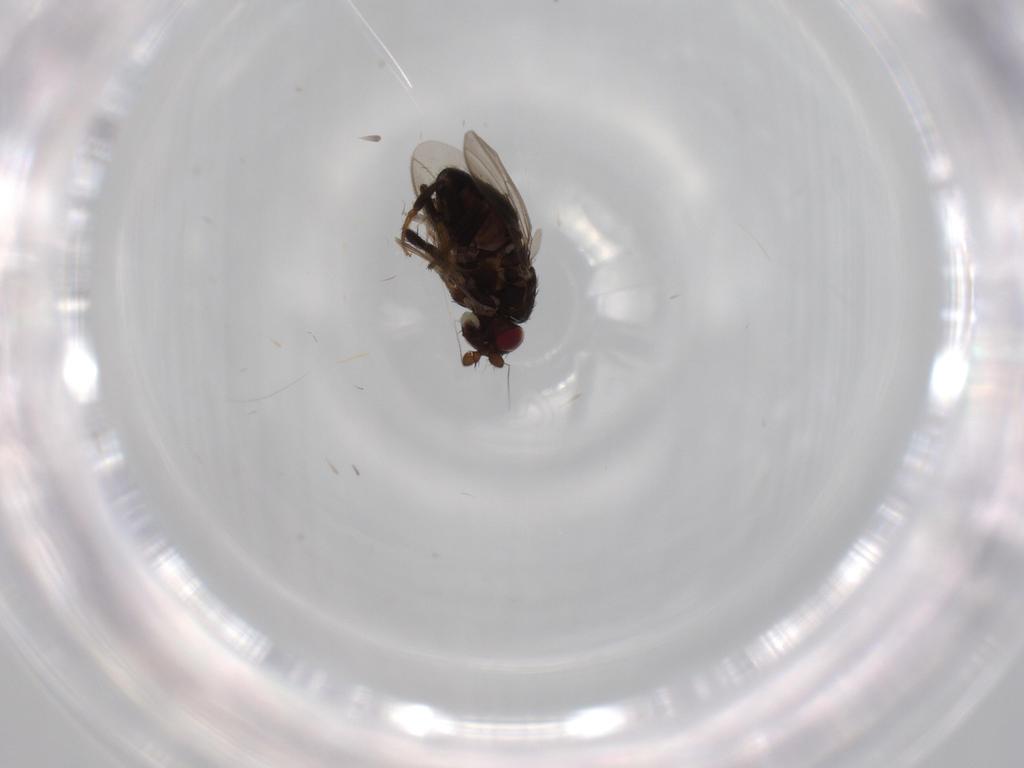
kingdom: Animalia
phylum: Arthropoda
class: Insecta
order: Diptera
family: Sphaeroceridae
